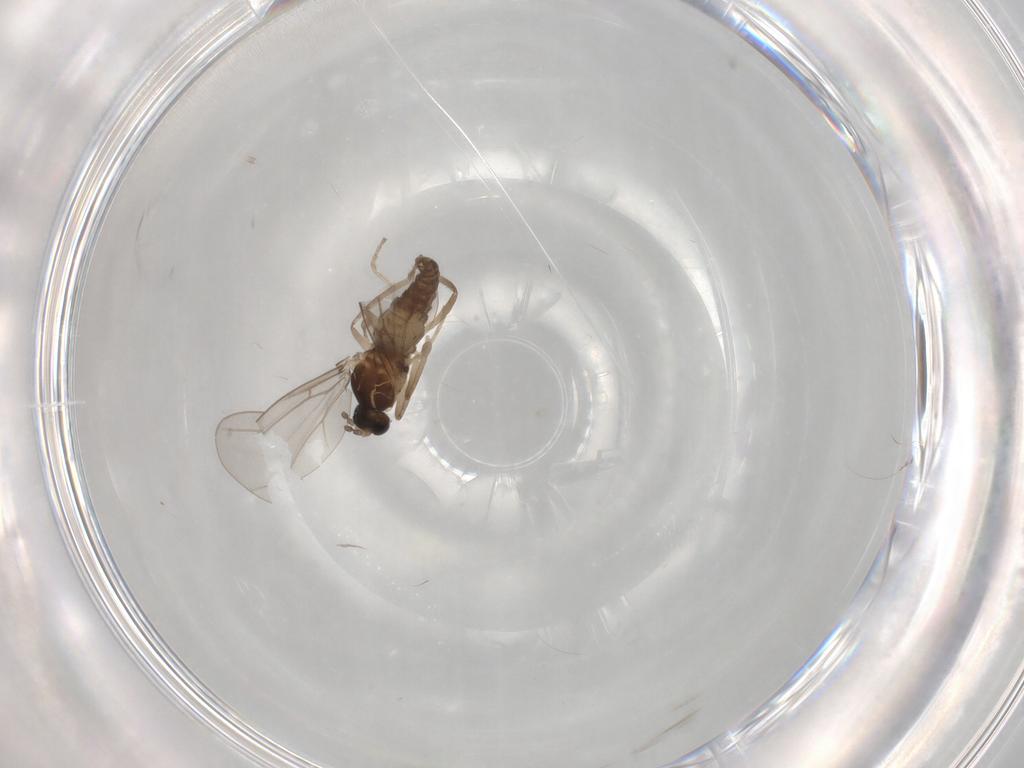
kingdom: Animalia
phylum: Arthropoda
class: Insecta
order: Diptera
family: Cecidomyiidae
